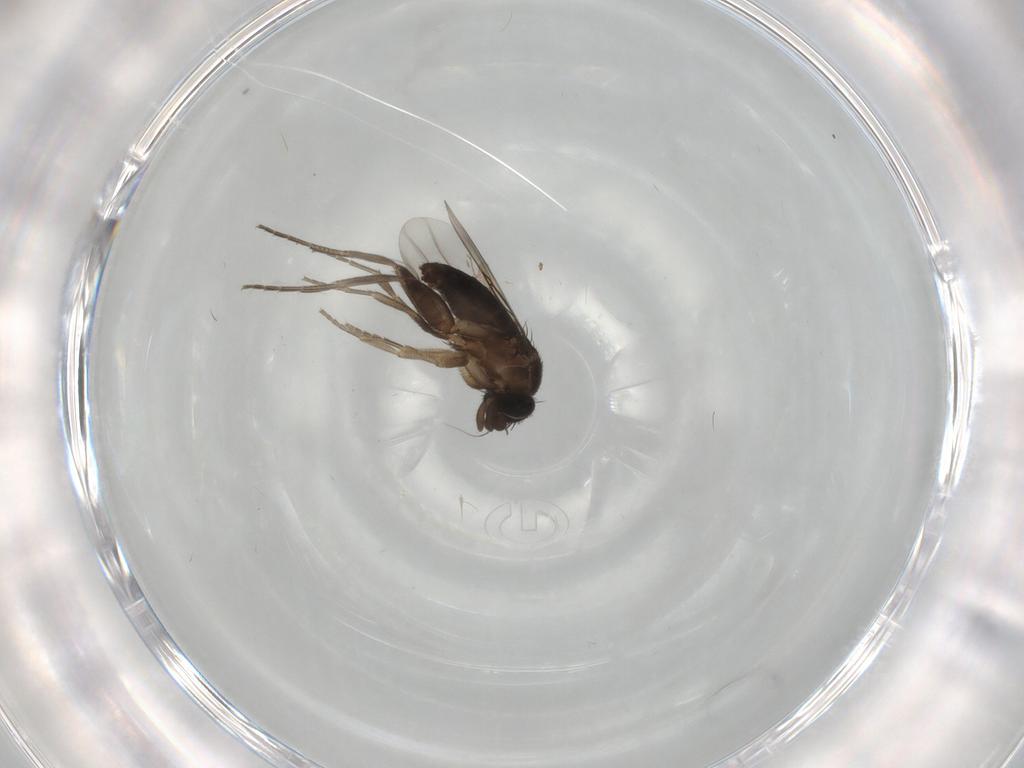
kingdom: Animalia
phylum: Arthropoda
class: Insecta
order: Diptera
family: Phoridae
